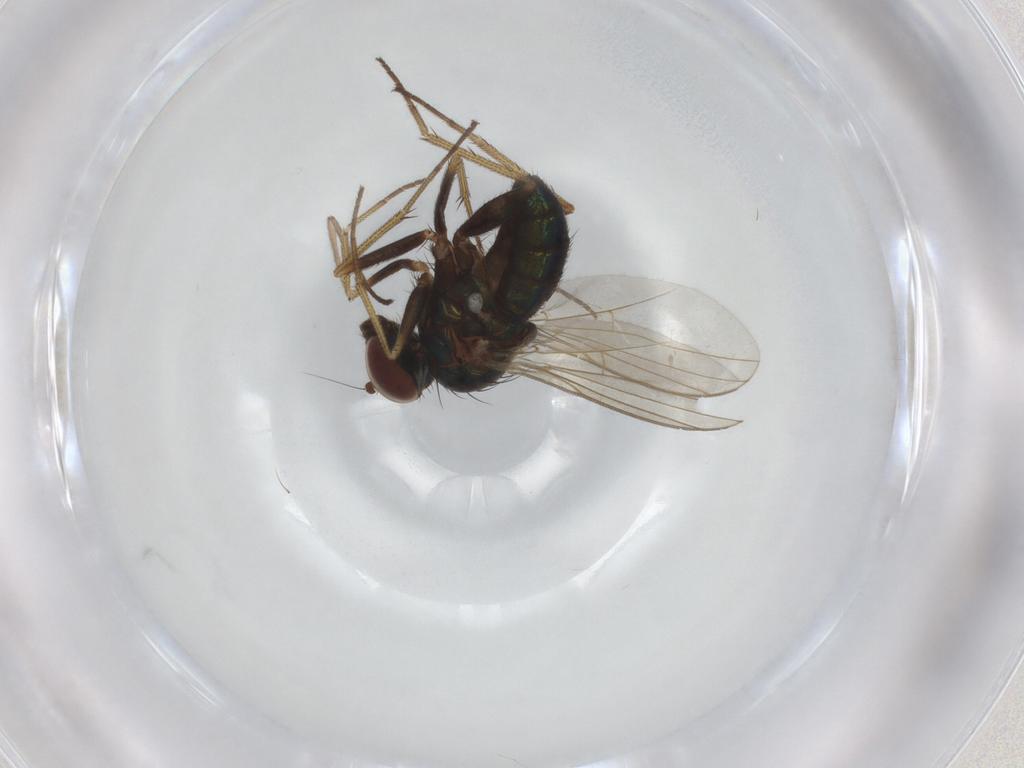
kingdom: Animalia
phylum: Arthropoda
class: Insecta
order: Diptera
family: Dolichopodidae
